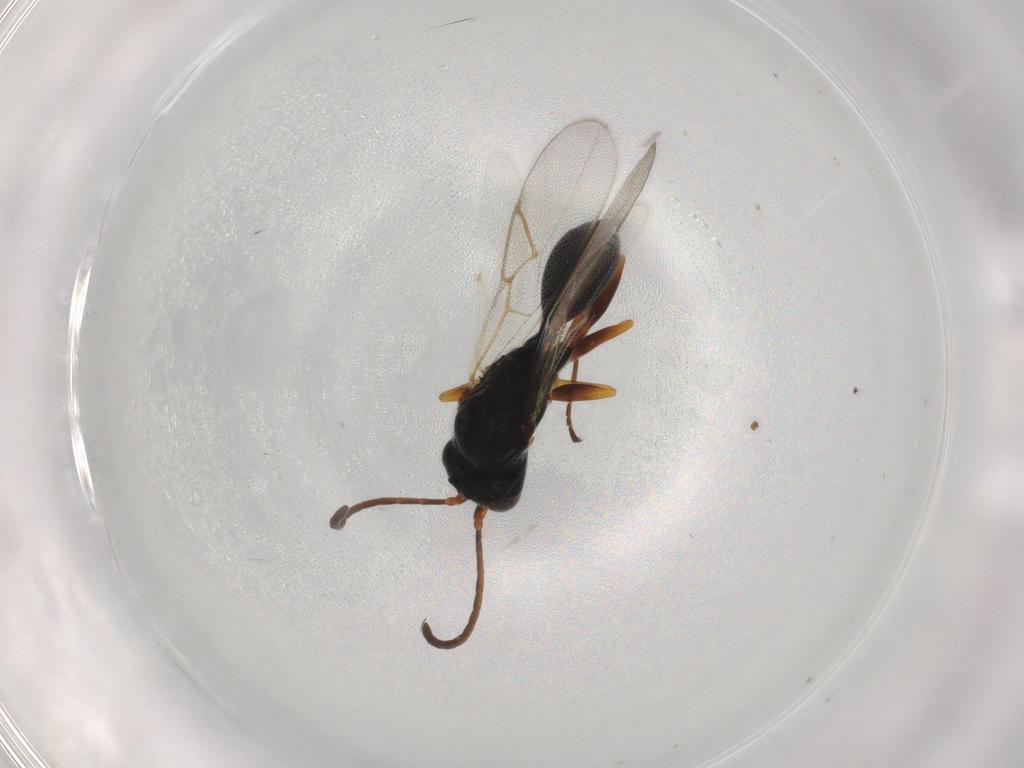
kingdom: Animalia
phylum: Arthropoda
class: Insecta
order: Hymenoptera
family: Figitidae
